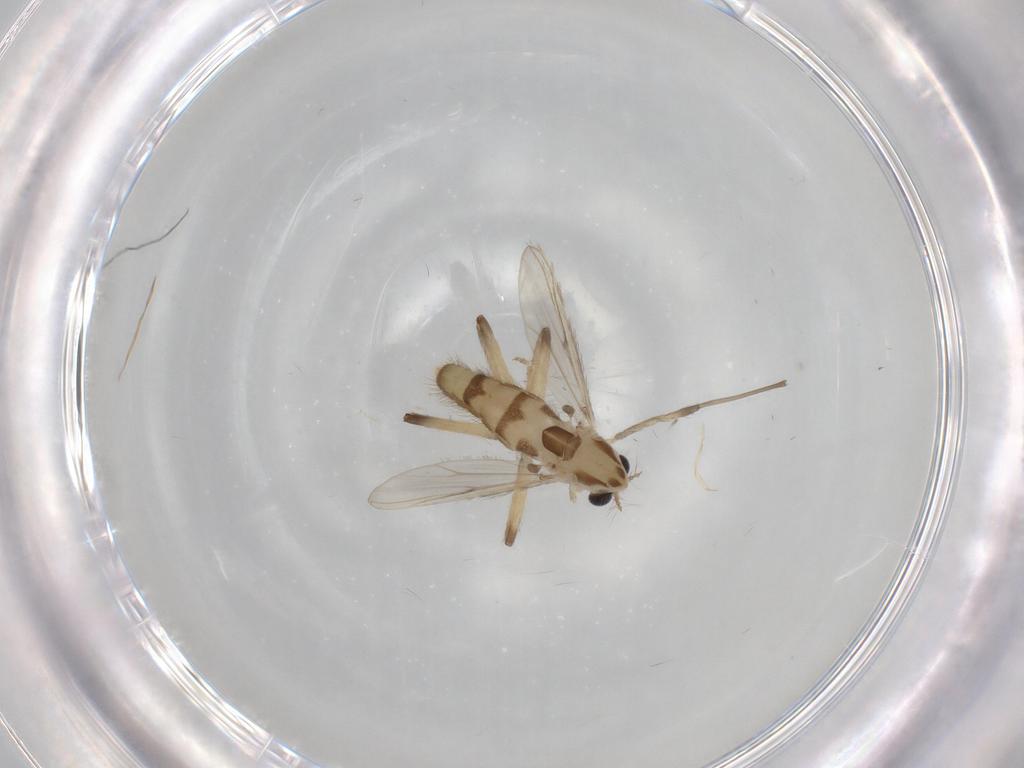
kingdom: Animalia
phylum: Arthropoda
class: Insecta
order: Diptera
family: Chironomidae
